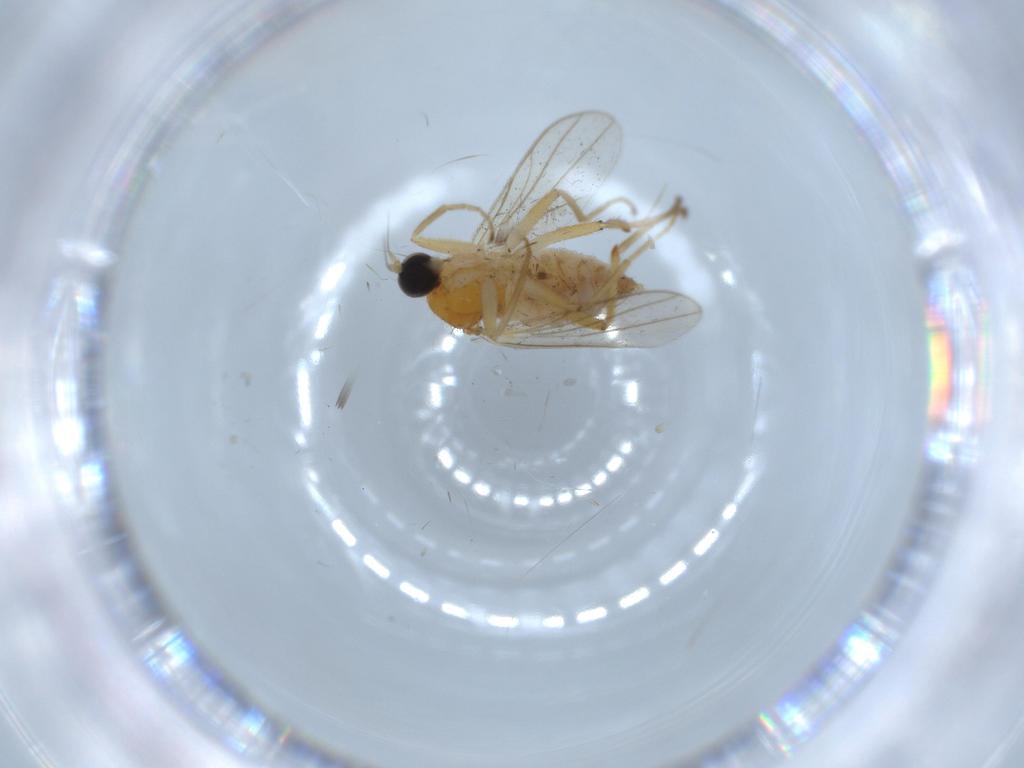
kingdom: Animalia
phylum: Arthropoda
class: Insecta
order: Diptera
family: Hybotidae
